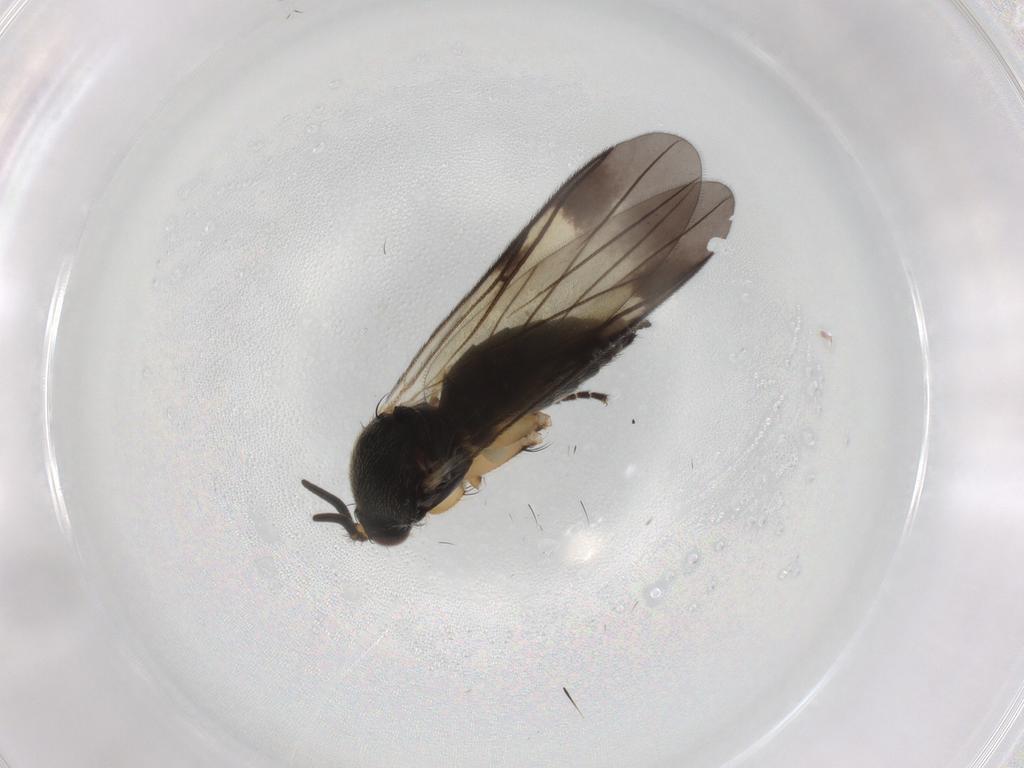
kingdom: Animalia
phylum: Arthropoda
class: Insecta
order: Diptera
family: Mycetophilidae
